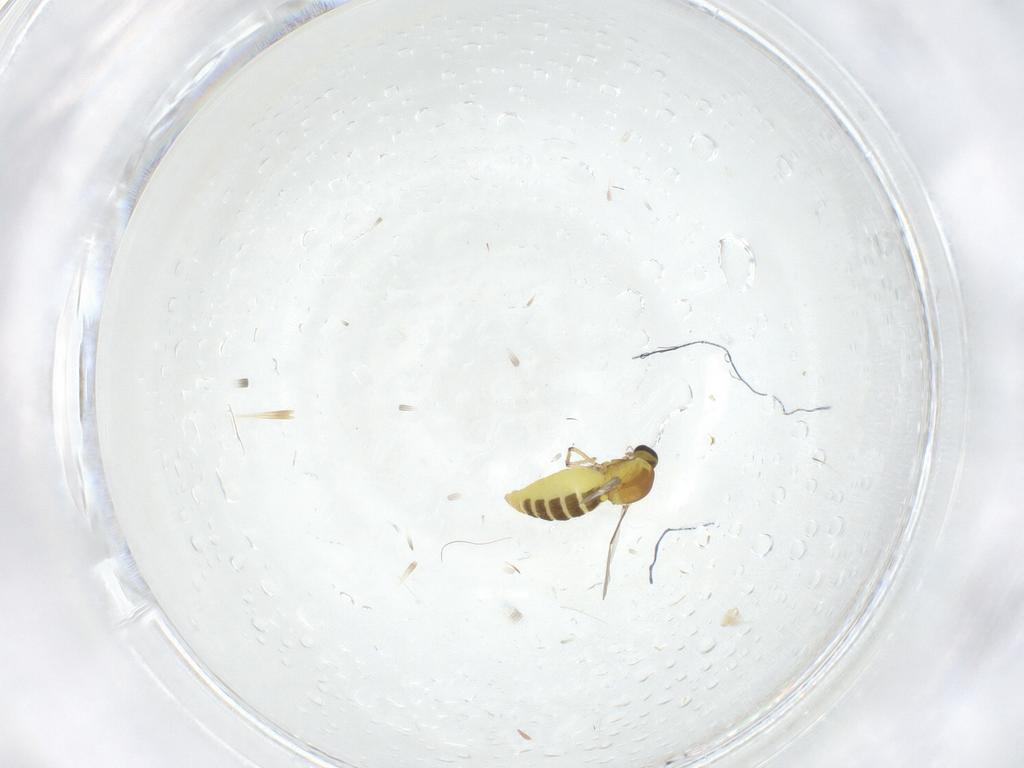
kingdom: Animalia
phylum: Arthropoda
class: Insecta
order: Diptera
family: Ceratopogonidae
